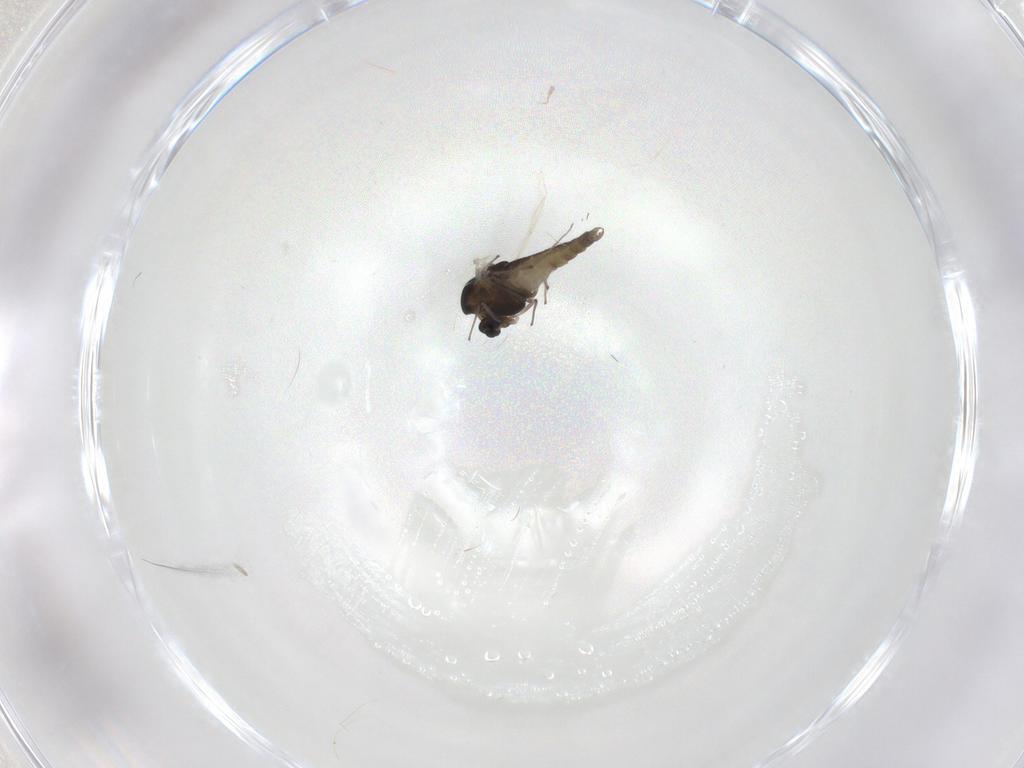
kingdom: Animalia
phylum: Arthropoda
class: Insecta
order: Diptera
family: Chironomidae
